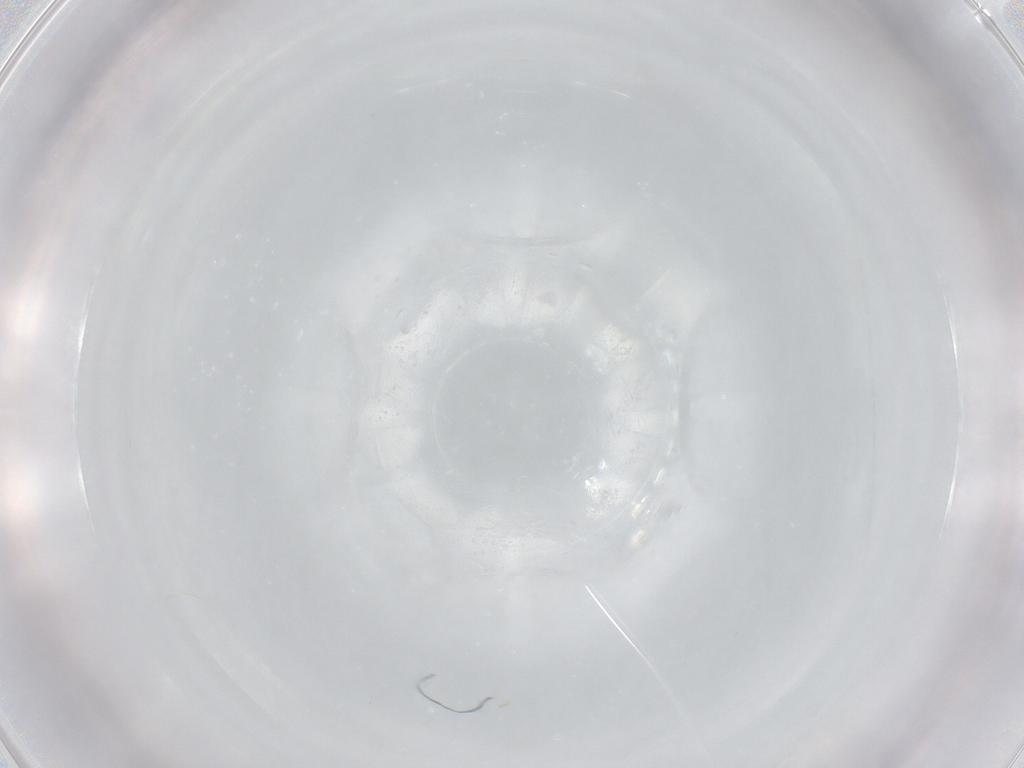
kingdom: Animalia
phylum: Arthropoda
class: Collembola
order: Entomobryomorpha
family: Entomobryidae
